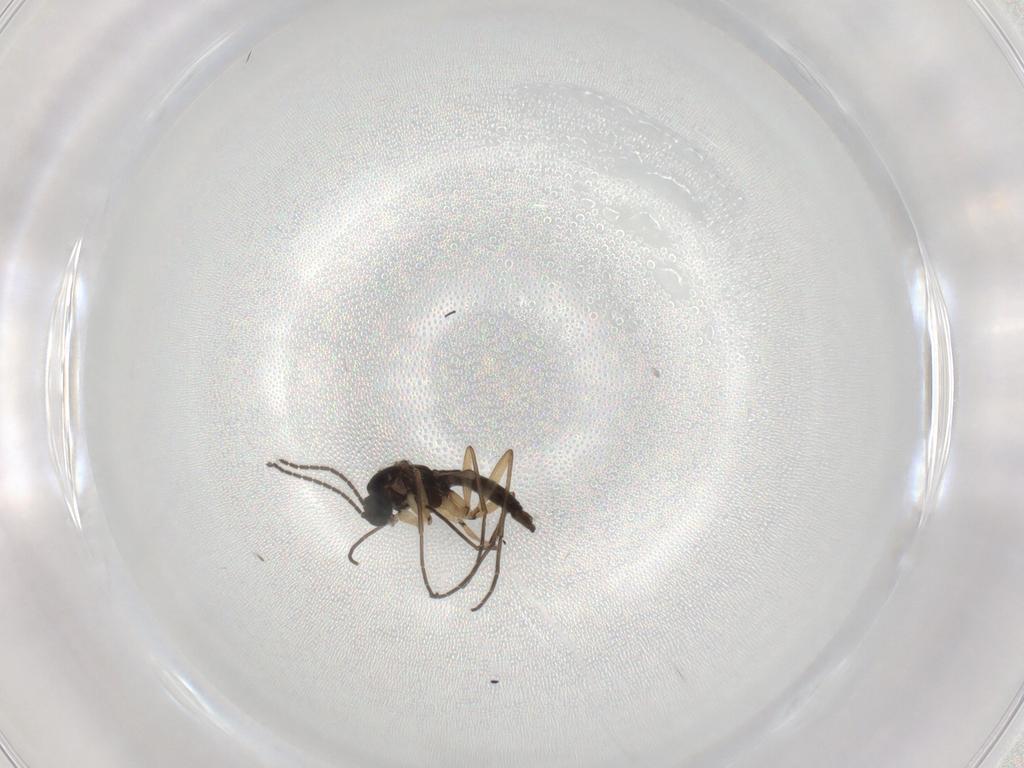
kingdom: Animalia
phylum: Arthropoda
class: Insecta
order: Diptera
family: Sciaridae
